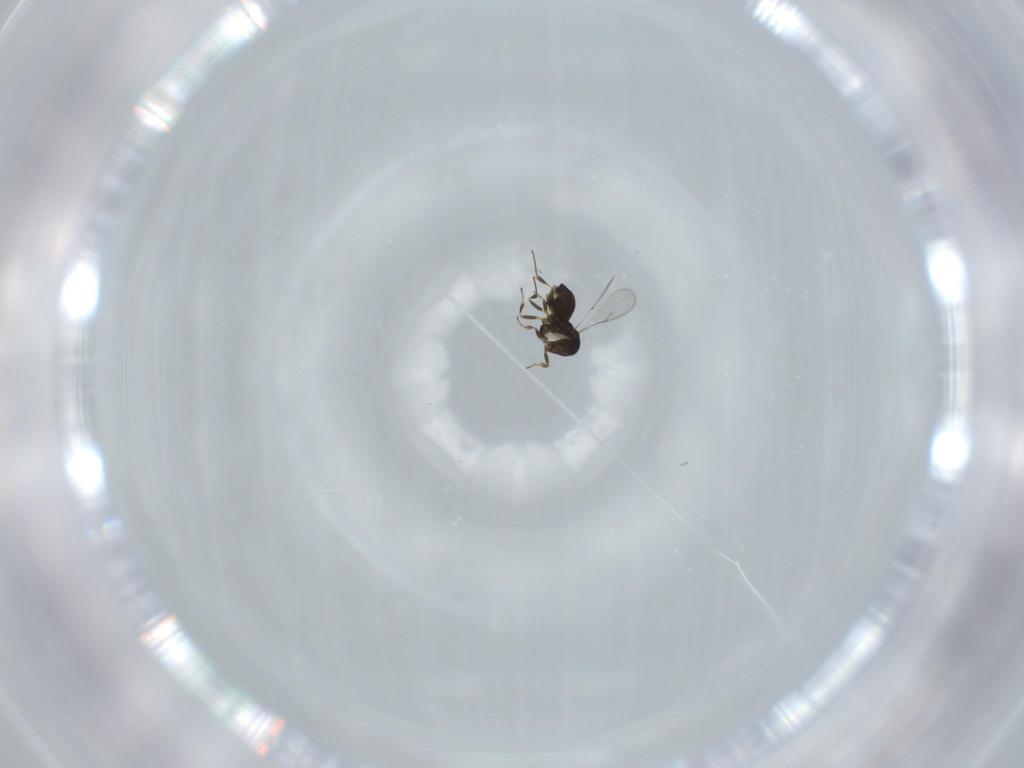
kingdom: Animalia
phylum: Arthropoda
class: Insecta
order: Hymenoptera
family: Scelionidae
